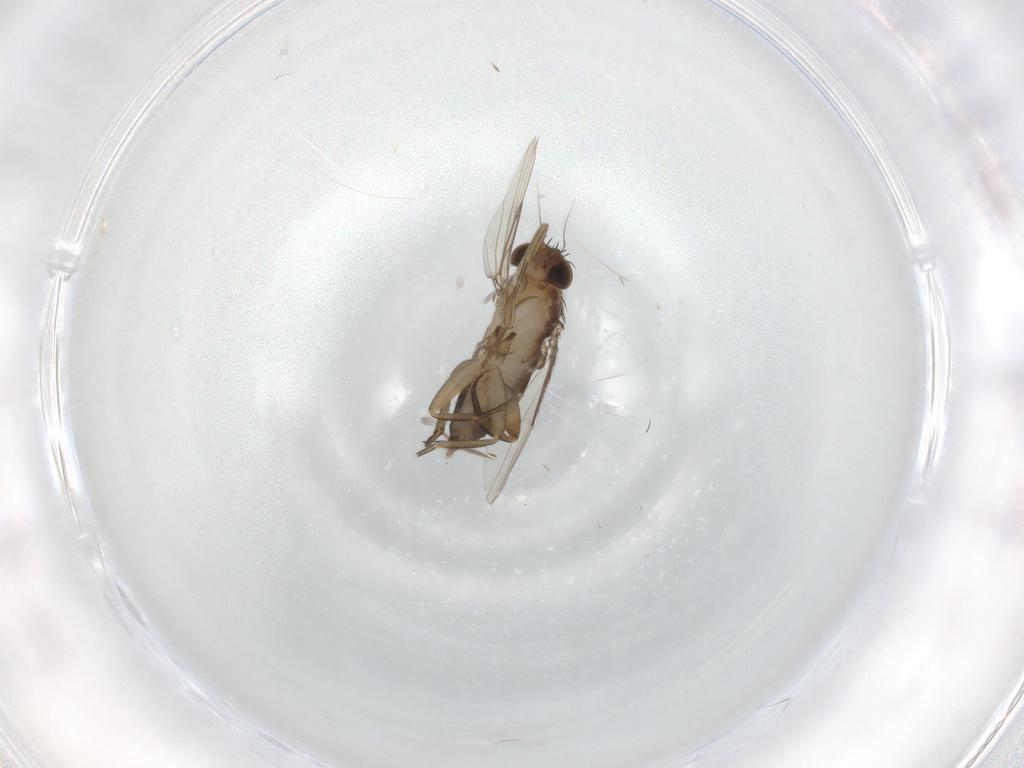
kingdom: Animalia
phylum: Arthropoda
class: Insecta
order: Diptera
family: Phoridae
